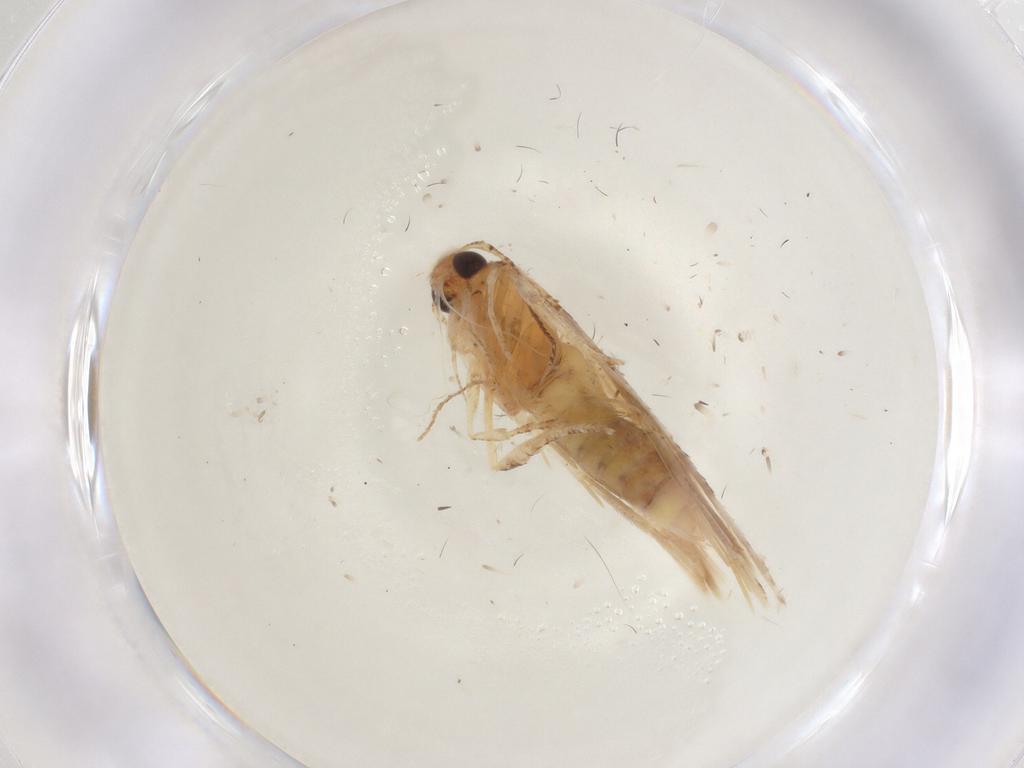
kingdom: Animalia
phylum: Arthropoda
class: Insecta
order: Lepidoptera
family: Gelechiidae
